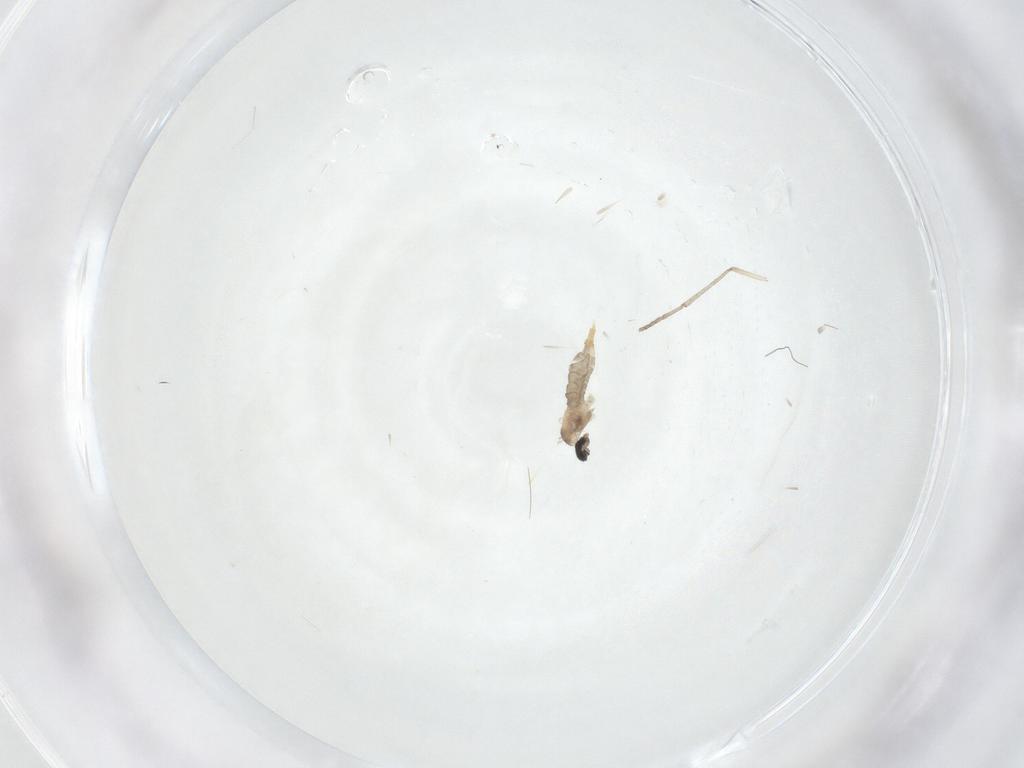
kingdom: Animalia
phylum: Arthropoda
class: Insecta
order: Diptera
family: Cecidomyiidae
